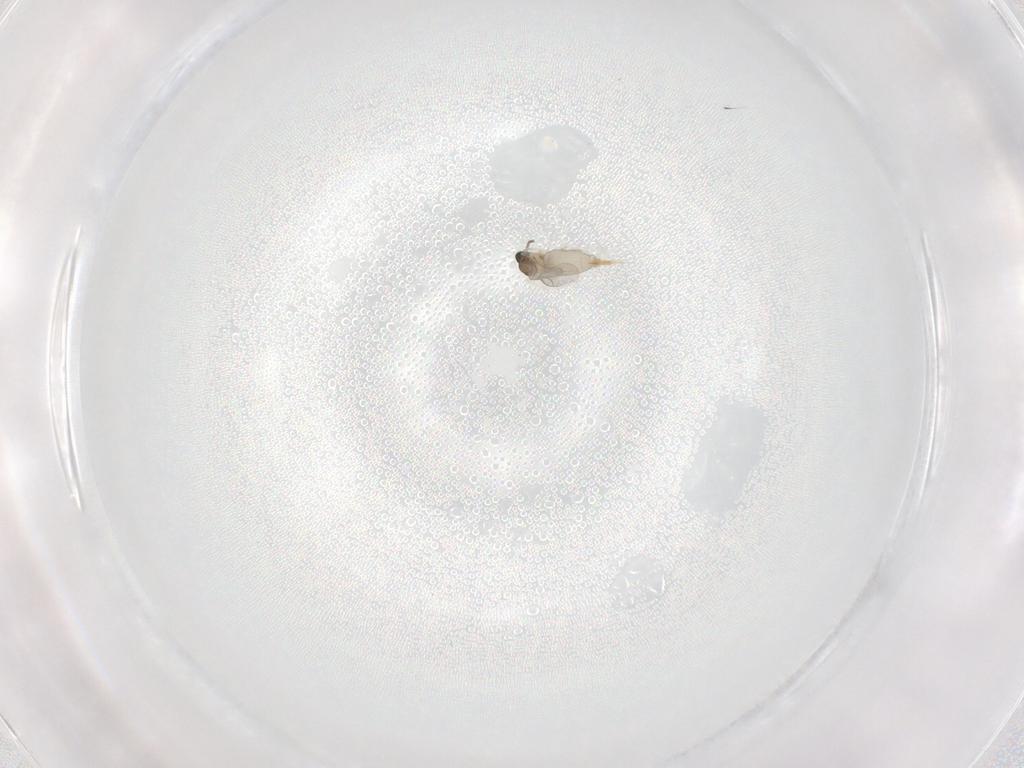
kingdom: Animalia
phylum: Arthropoda
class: Insecta
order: Diptera
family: Cecidomyiidae
